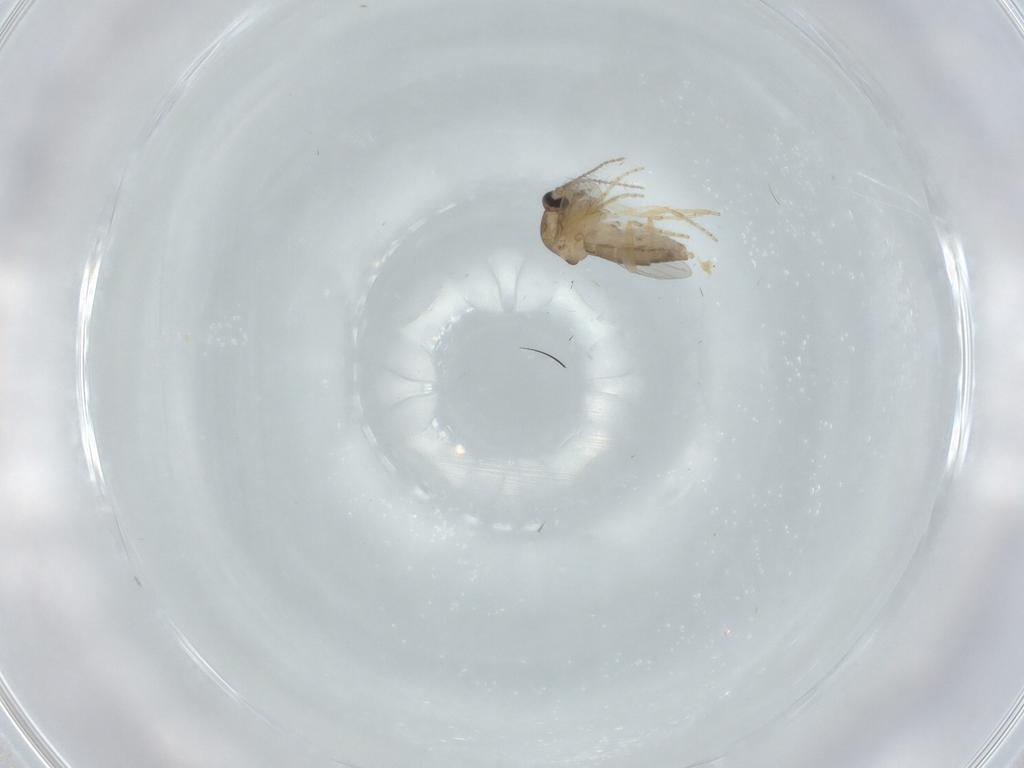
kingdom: Animalia
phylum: Arthropoda
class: Insecta
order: Diptera
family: Ceratopogonidae
